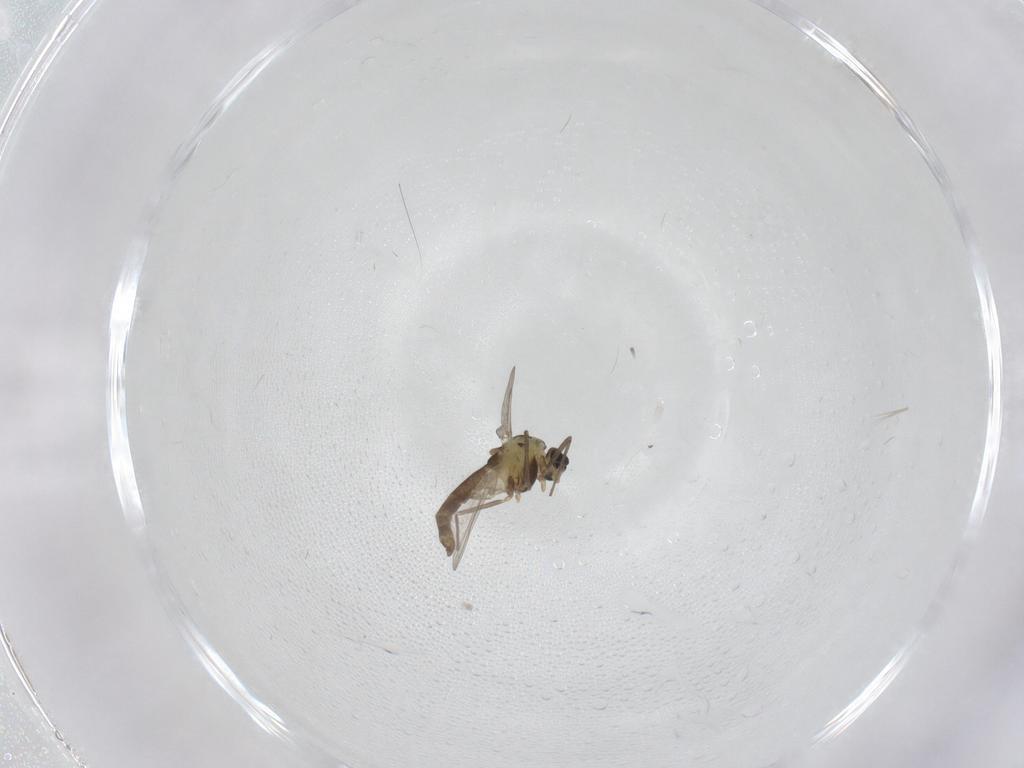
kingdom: Animalia
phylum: Arthropoda
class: Insecta
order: Diptera
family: Chironomidae
